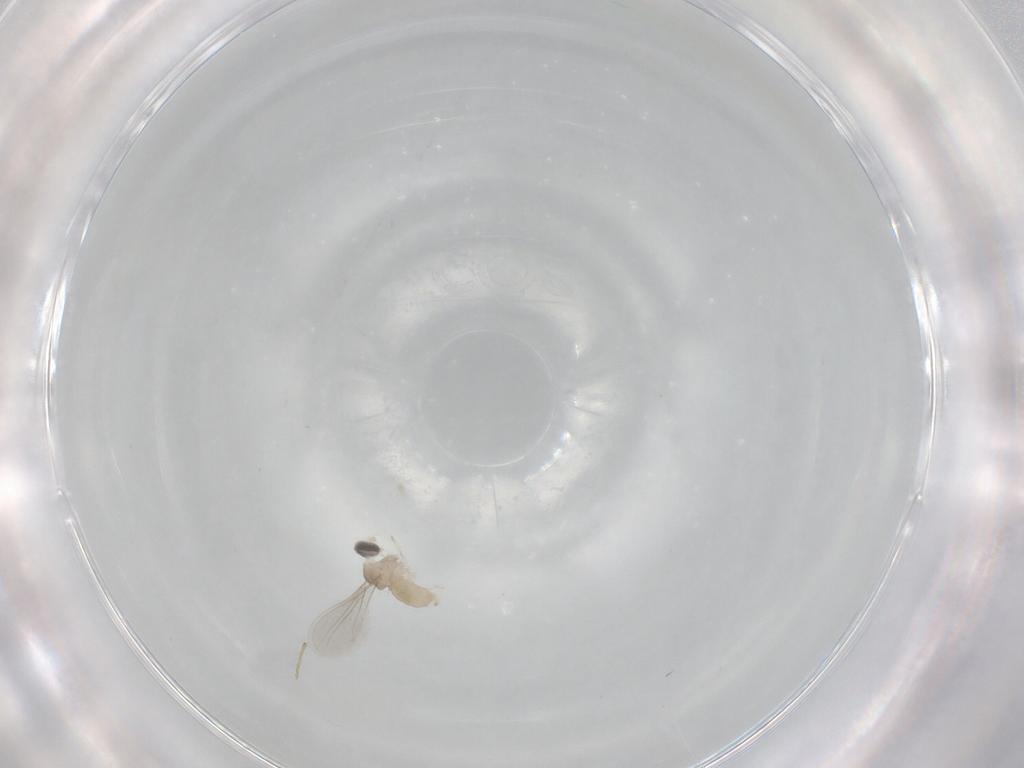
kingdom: Animalia
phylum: Arthropoda
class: Insecta
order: Diptera
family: Cecidomyiidae
